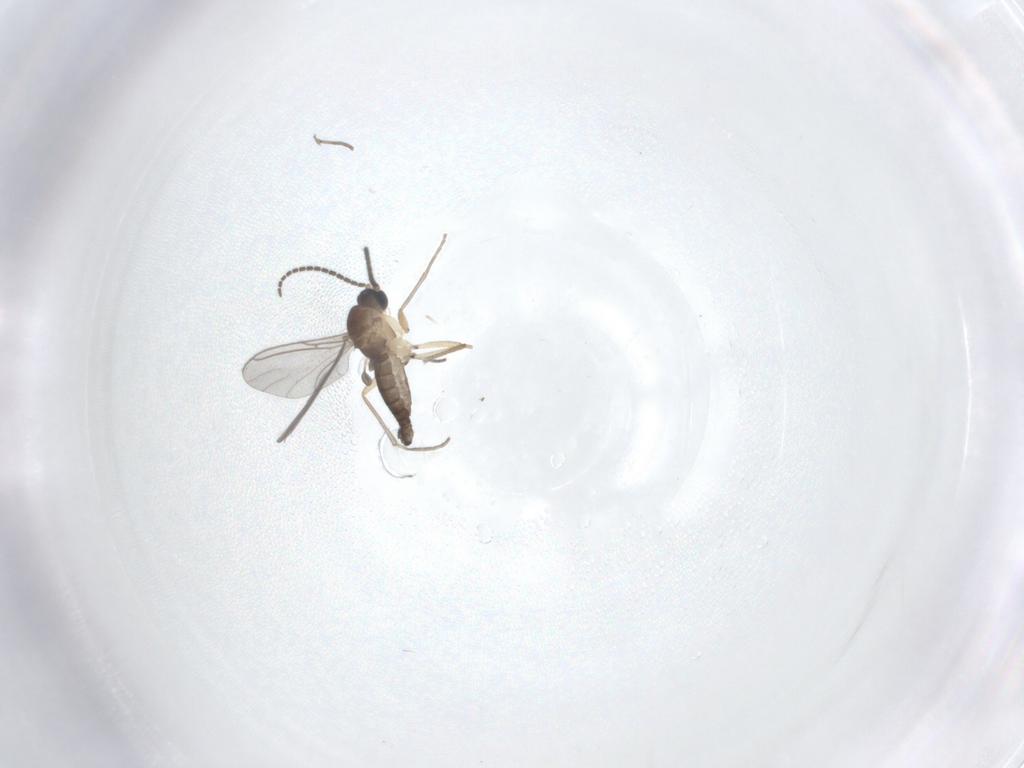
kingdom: Animalia
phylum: Arthropoda
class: Insecta
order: Diptera
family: Sciaridae
